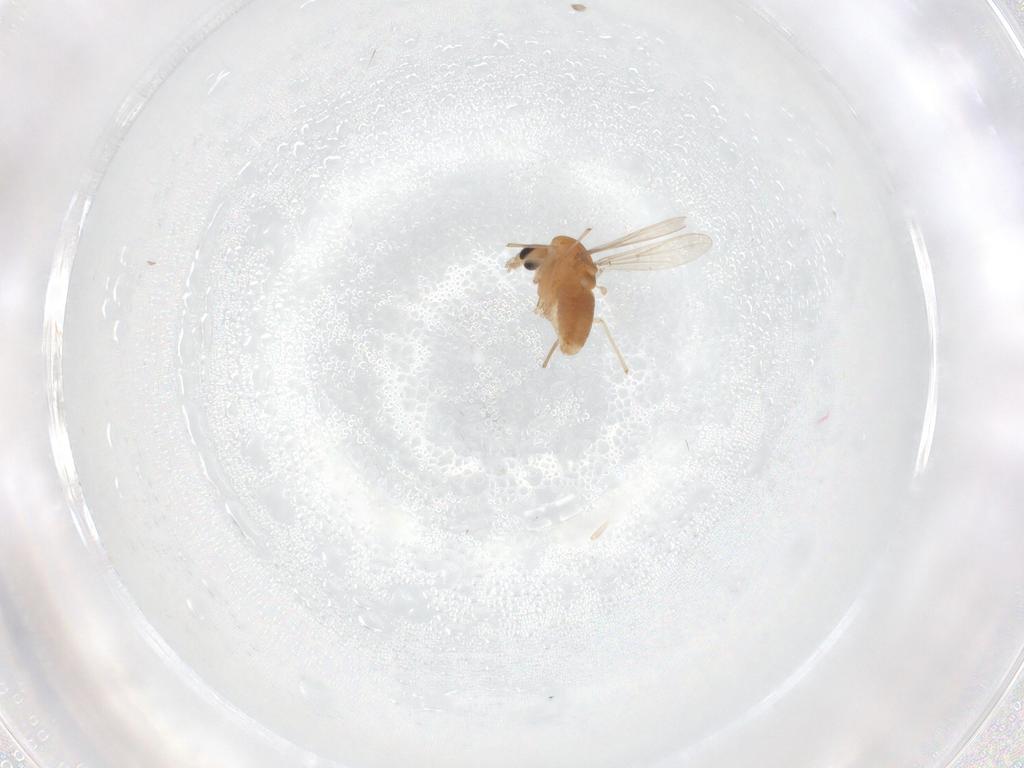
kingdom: Animalia
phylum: Arthropoda
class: Insecta
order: Diptera
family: Chironomidae
